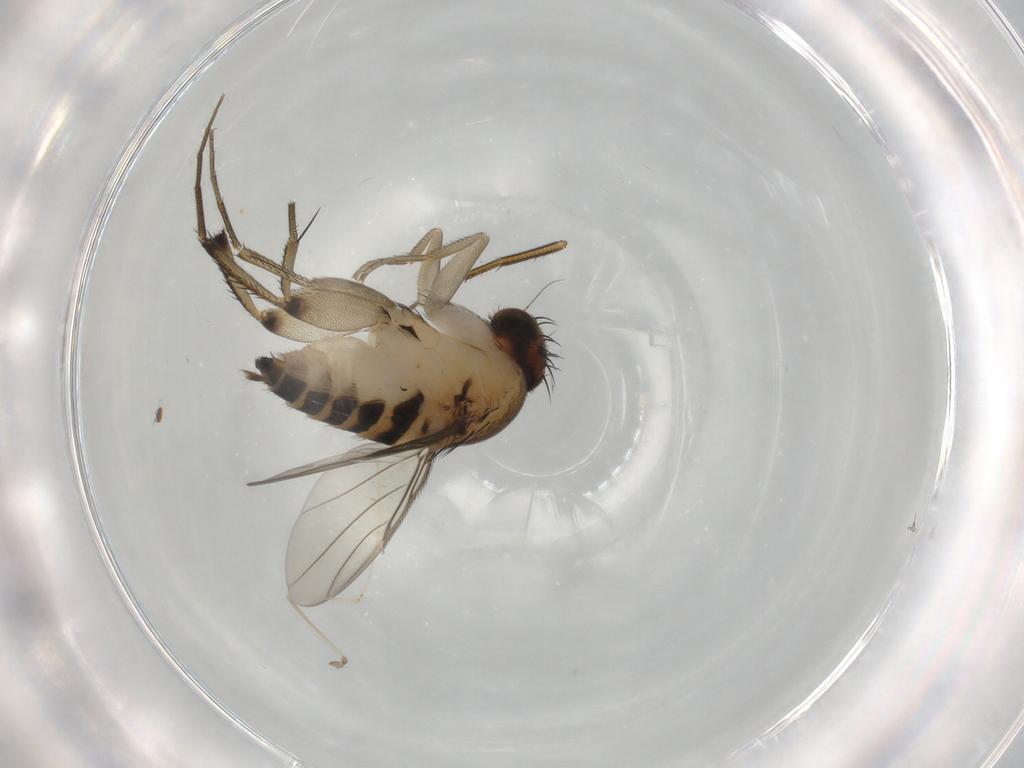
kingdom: Animalia
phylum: Arthropoda
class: Insecta
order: Diptera
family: Phoridae
